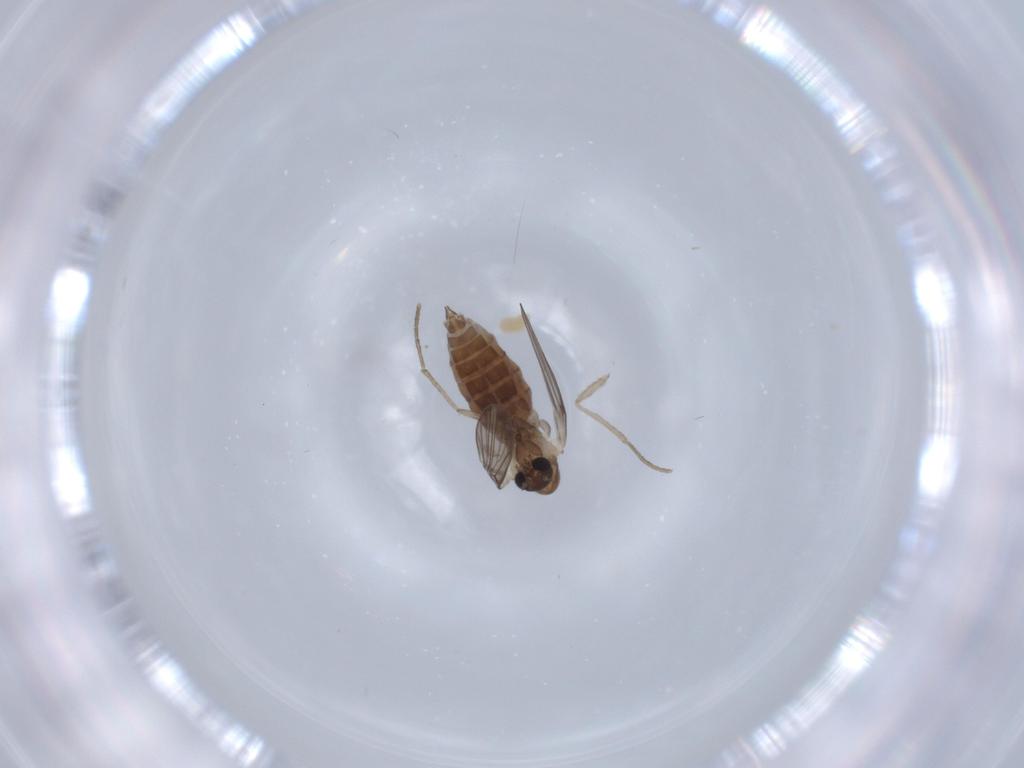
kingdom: Animalia
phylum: Arthropoda
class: Insecta
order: Diptera
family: Psychodidae
